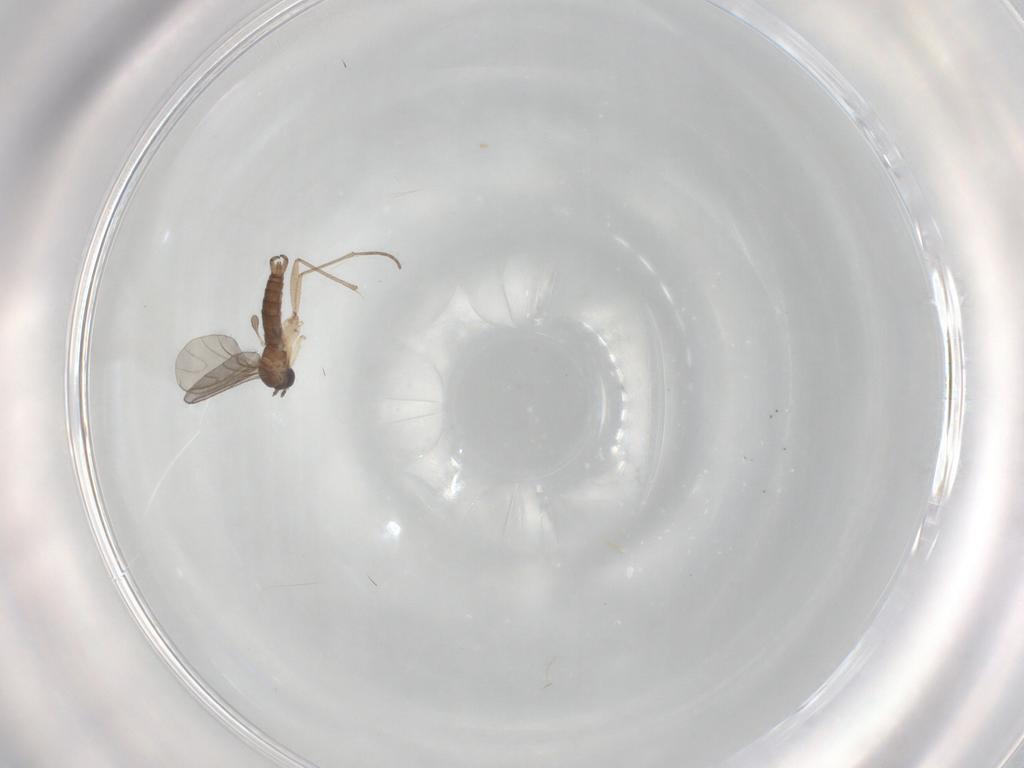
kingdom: Animalia
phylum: Arthropoda
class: Insecta
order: Diptera
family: Sciaridae
